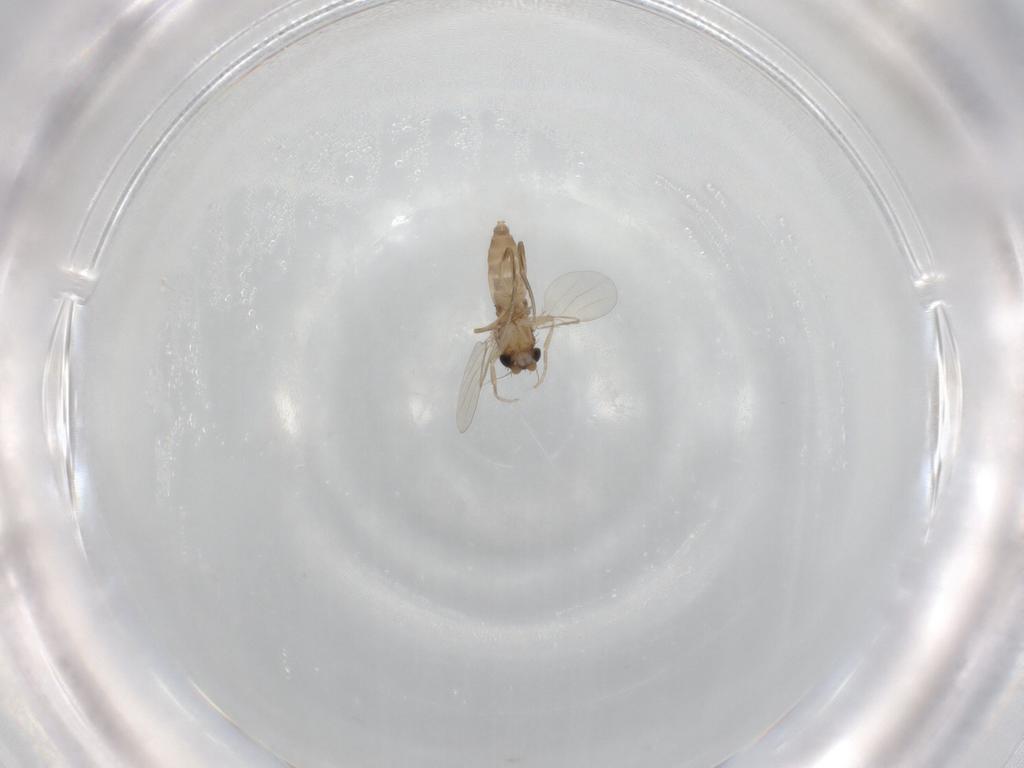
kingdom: Animalia
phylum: Arthropoda
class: Insecta
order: Diptera
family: Phoridae
